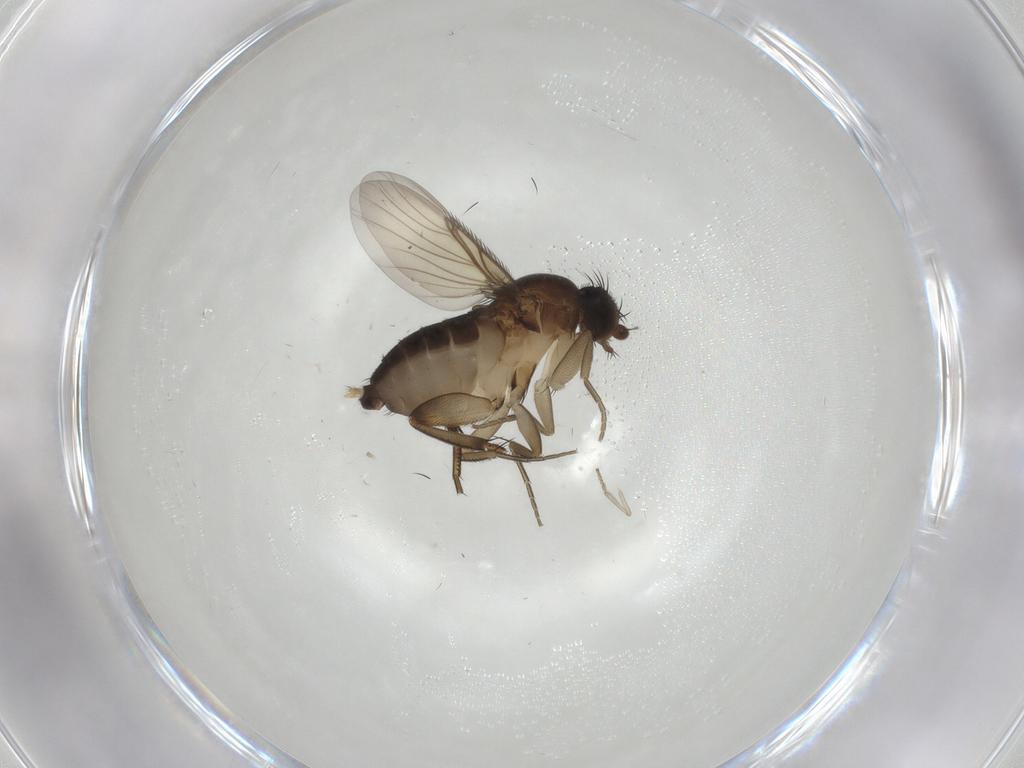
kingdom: Animalia
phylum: Arthropoda
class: Insecta
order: Diptera
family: Phoridae
